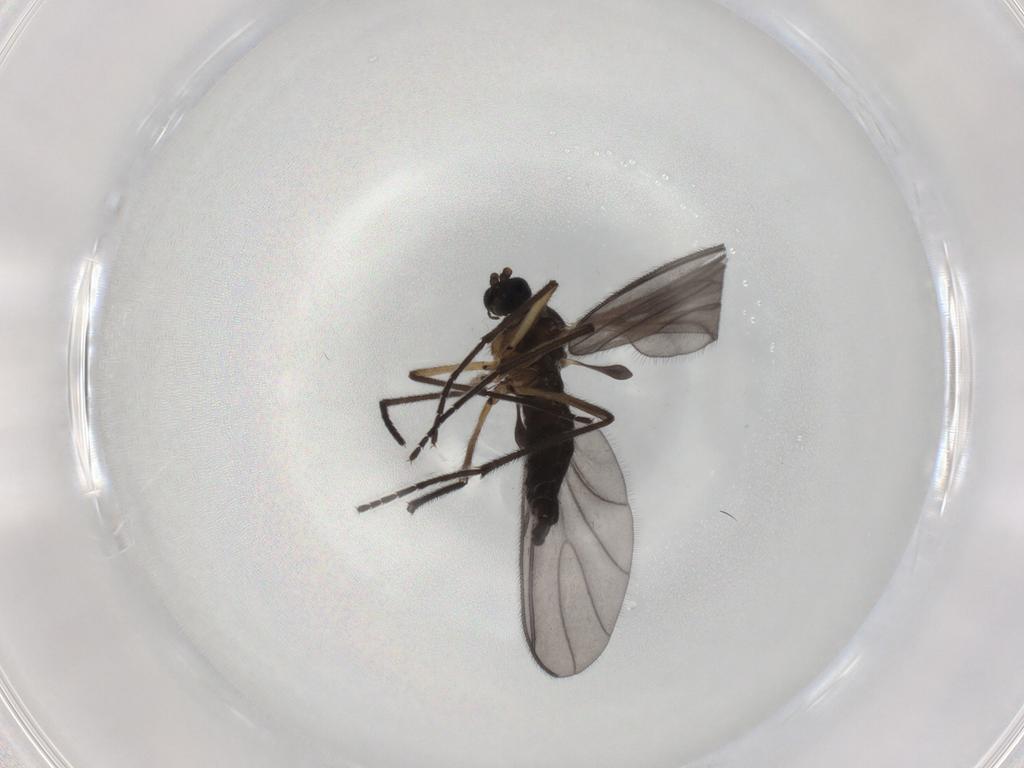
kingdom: Animalia
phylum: Arthropoda
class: Insecta
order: Diptera
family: Sciaridae
